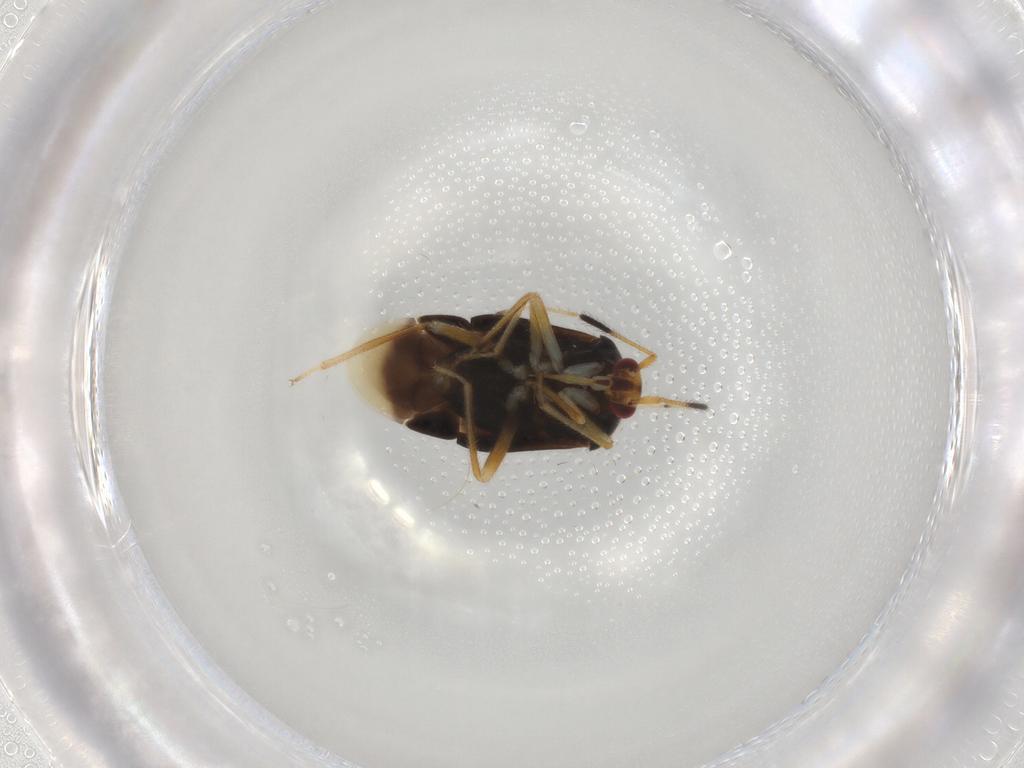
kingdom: Animalia
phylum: Arthropoda
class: Insecta
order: Hemiptera
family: Miridae
